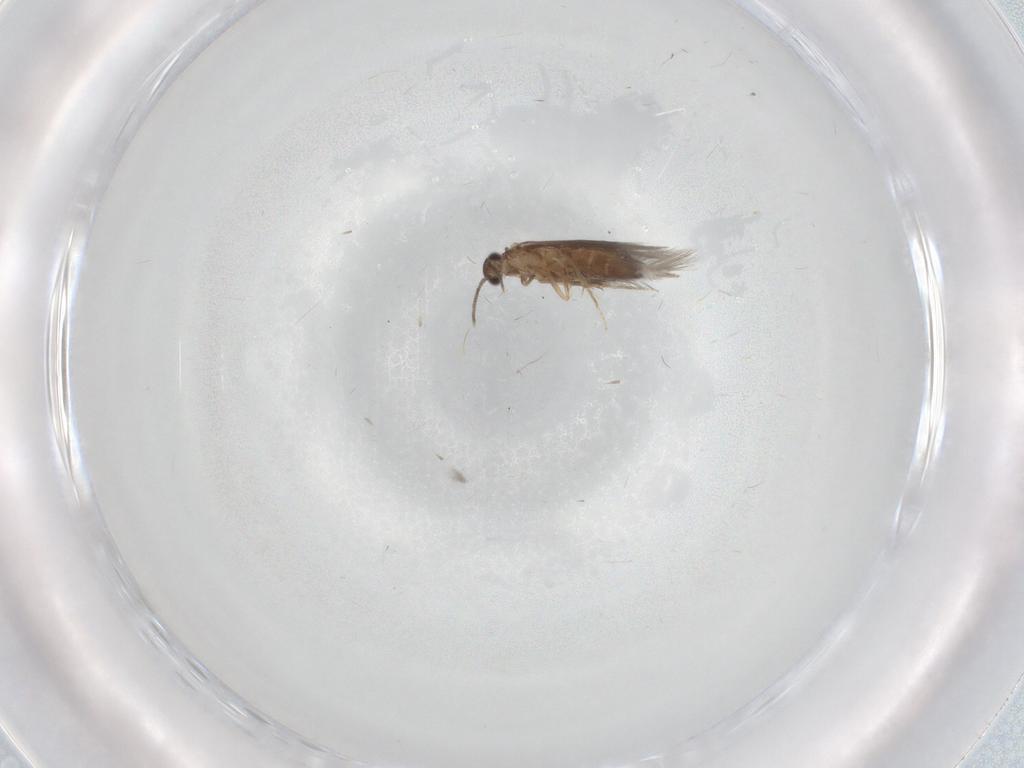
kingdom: Animalia
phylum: Arthropoda
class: Insecta
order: Trichoptera
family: Hydroptilidae
